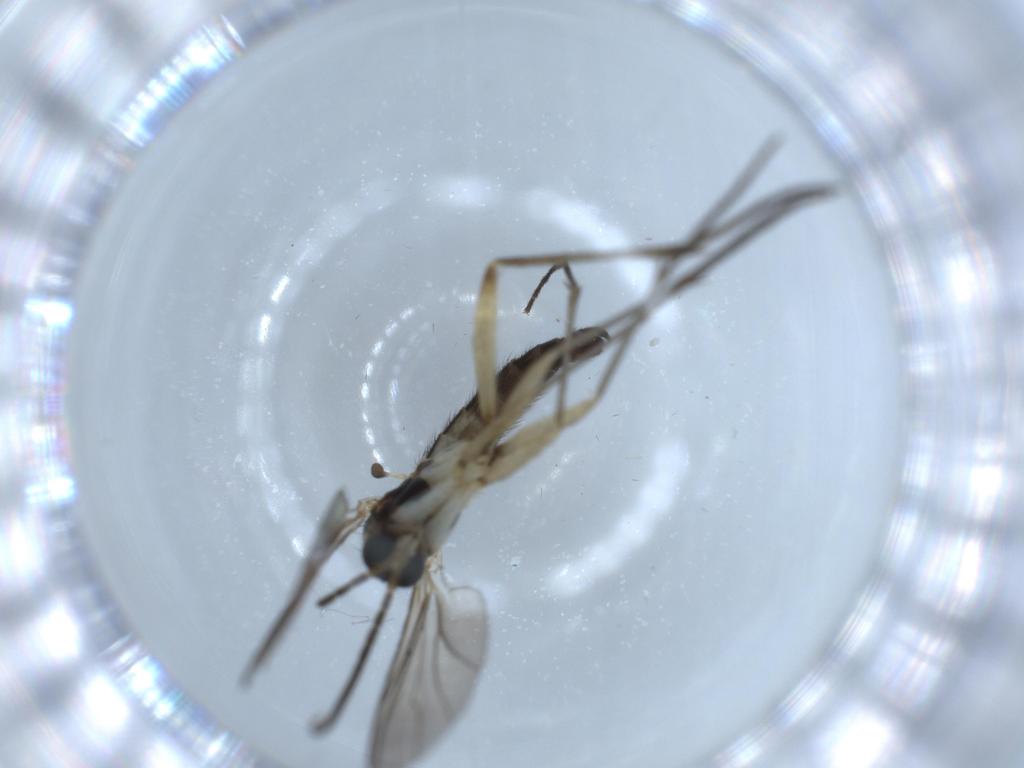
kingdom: Animalia
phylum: Arthropoda
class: Insecta
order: Diptera
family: Sciaridae
